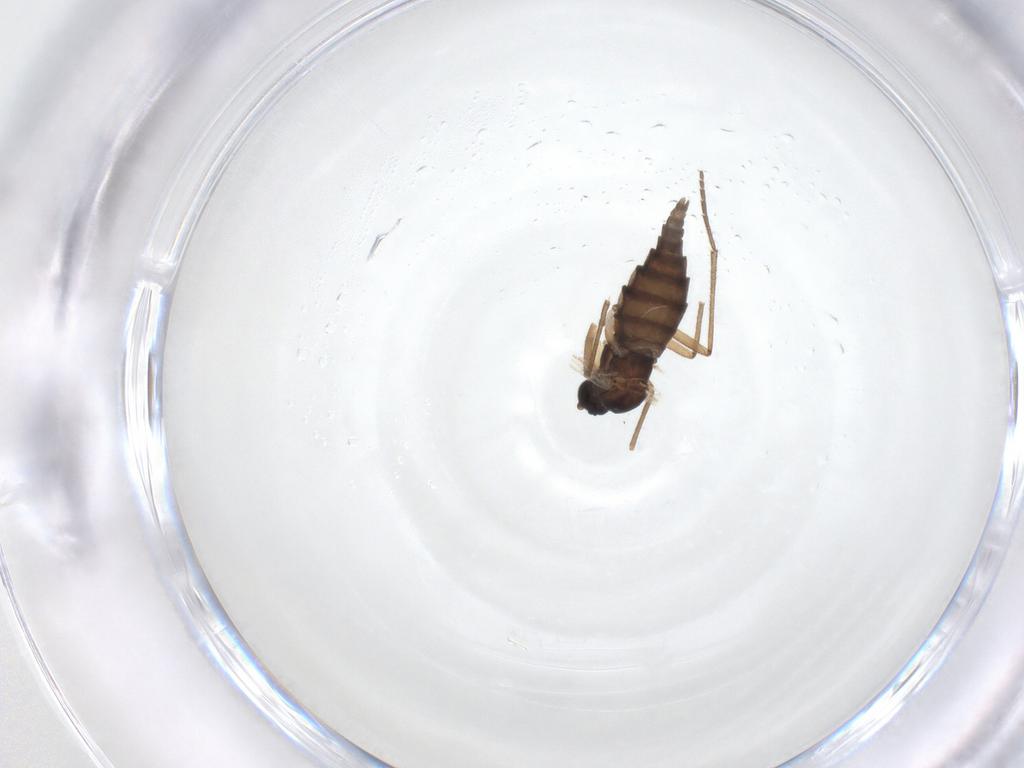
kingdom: Animalia
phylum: Arthropoda
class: Insecta
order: Diptera
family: Sciaridae
